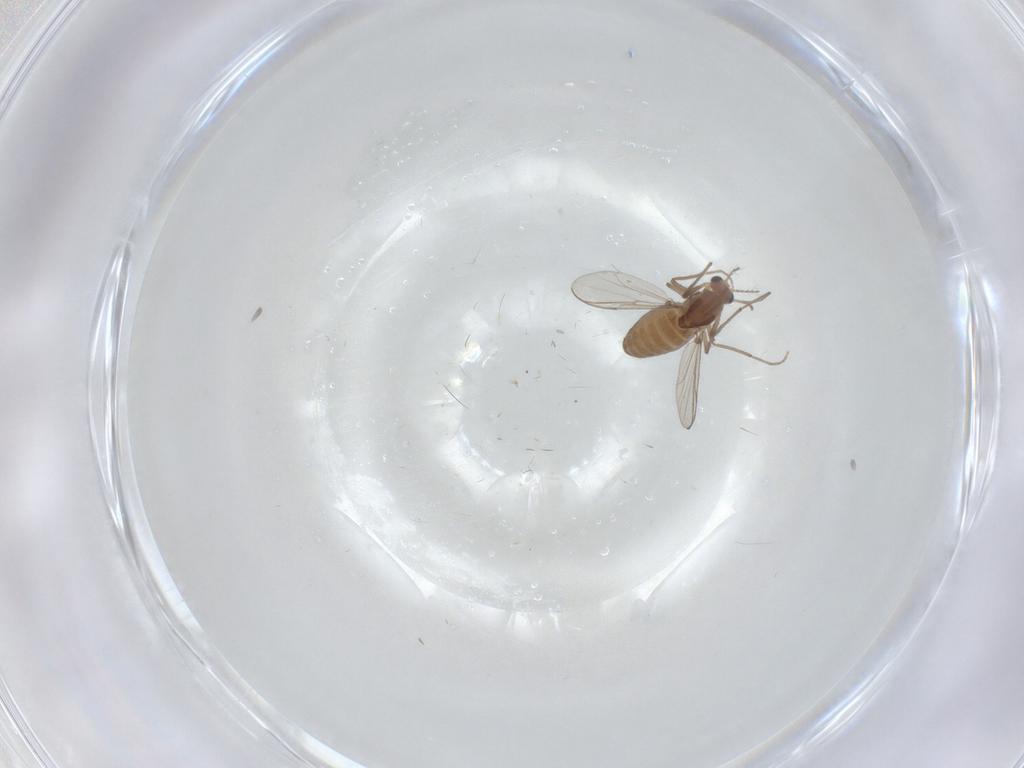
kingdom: Animalia
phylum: Arthropoda
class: Insecta
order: Diptera
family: Chironomidae
